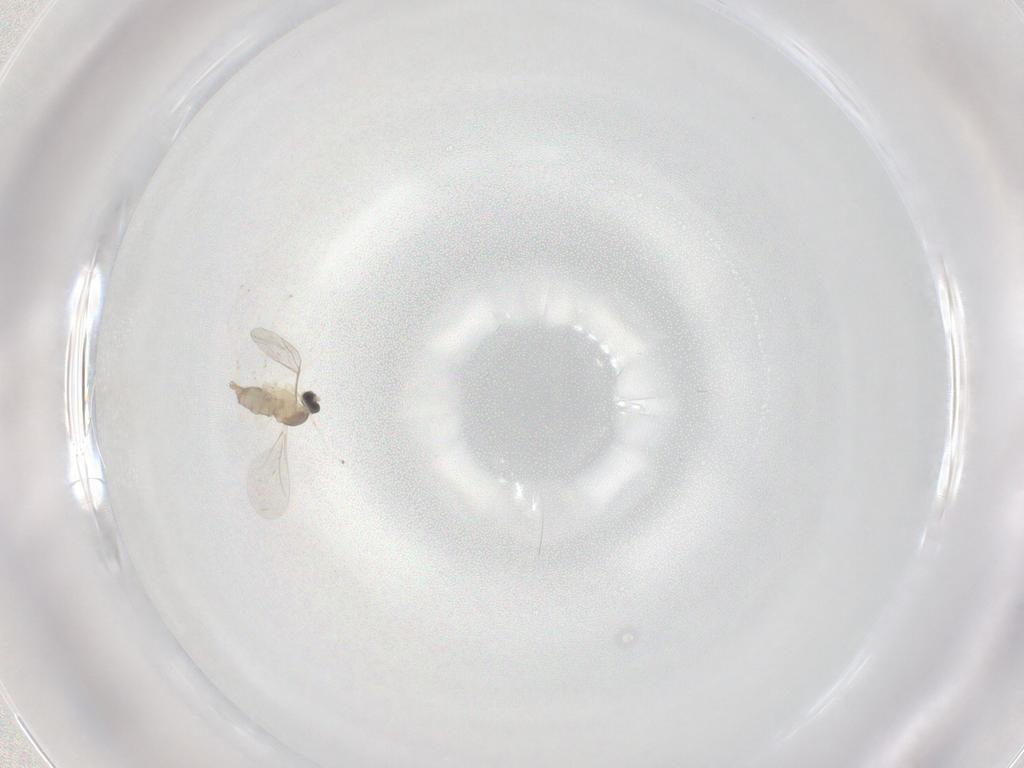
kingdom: Animalia
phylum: Arthropoda
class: Insecta
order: Diptera
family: Cecidomyiidae
